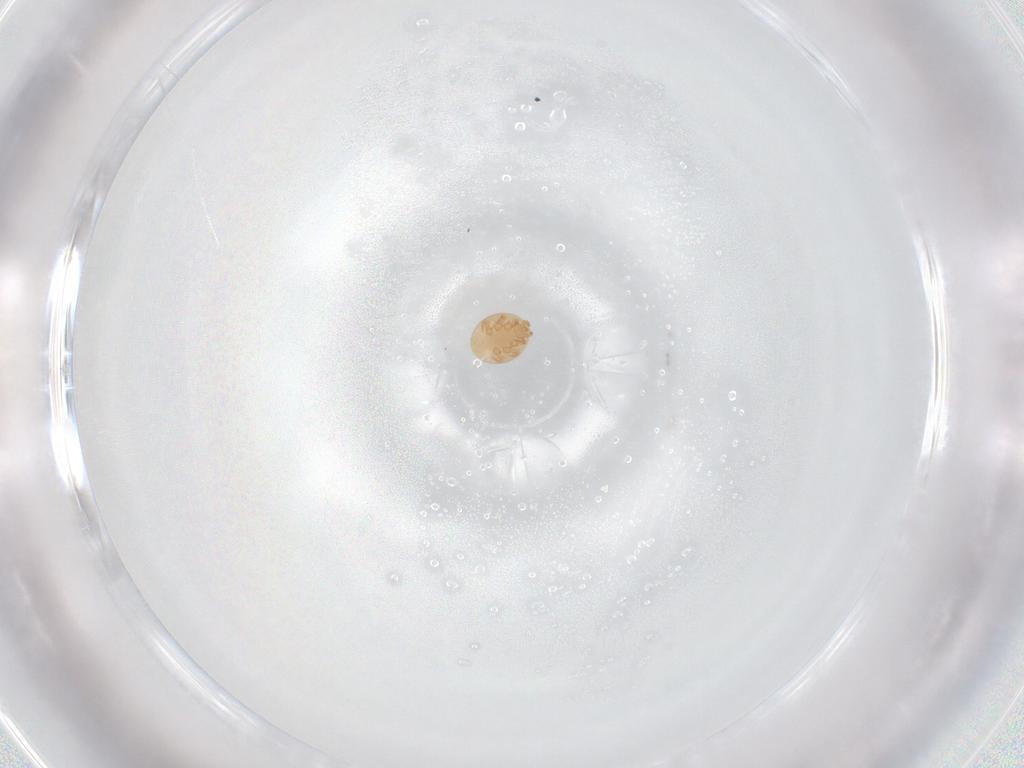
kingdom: Animalia
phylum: Arthropoda
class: Arachnida
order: Mesostigmata
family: Trematuridae
